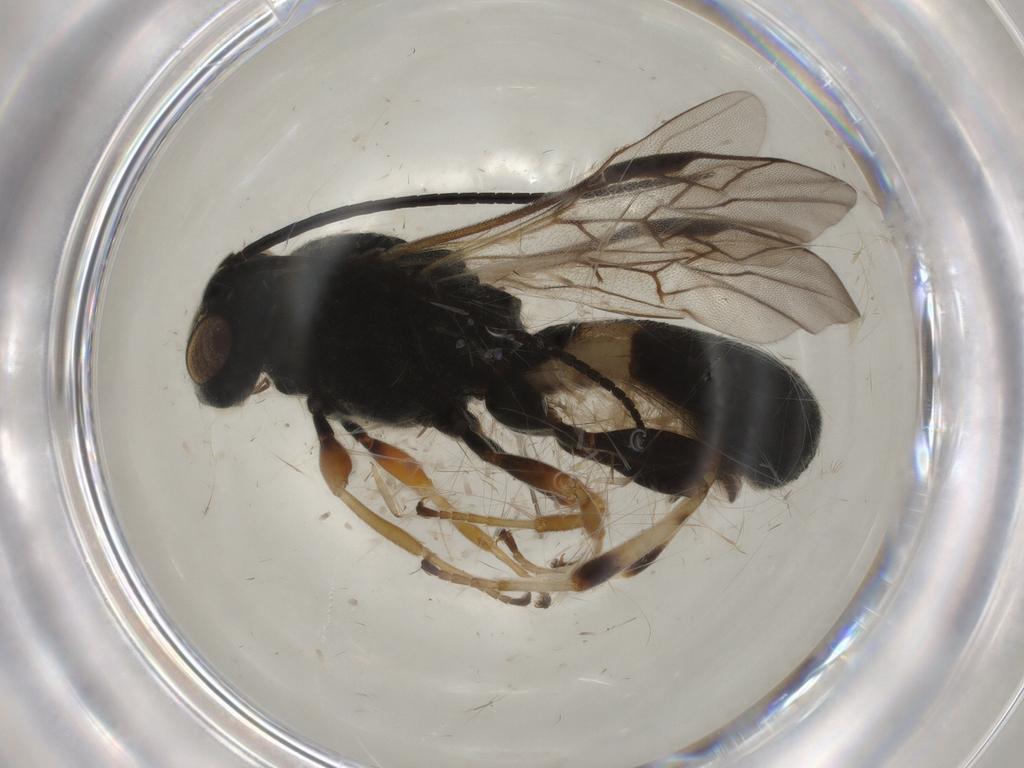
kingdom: Animalia
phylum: Arthropoda
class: Insecta
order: Hymenoptera
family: Braconidae
